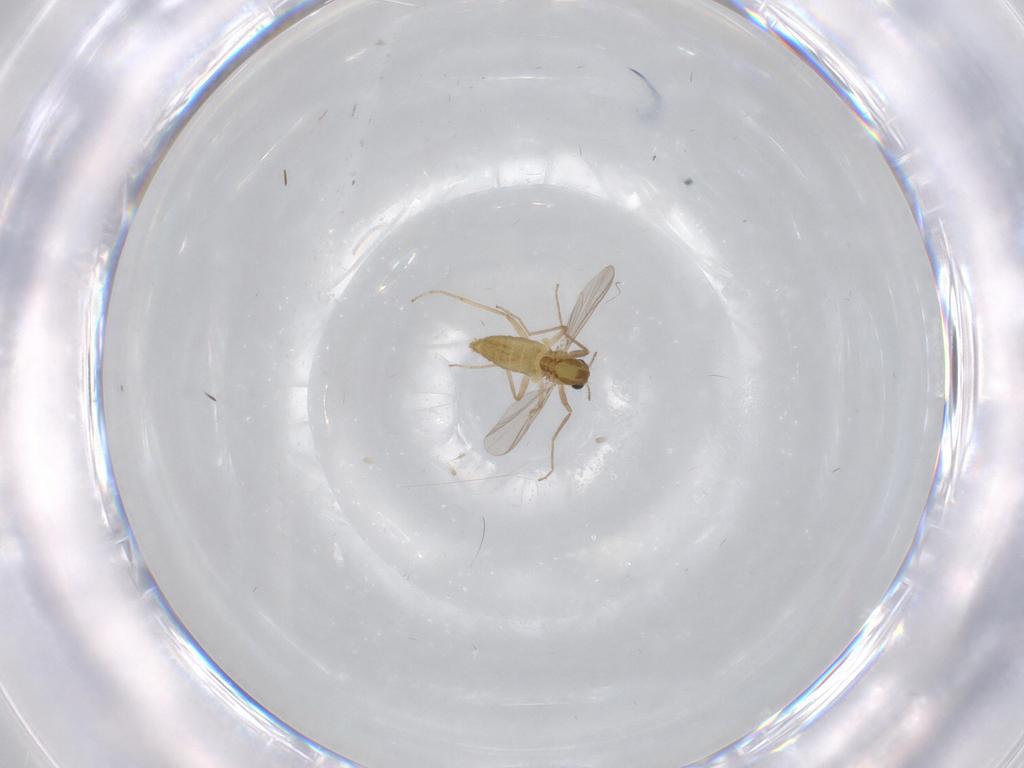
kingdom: Animalia
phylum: Arthropoda
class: Insecta
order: Diptera
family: Chironomidae
